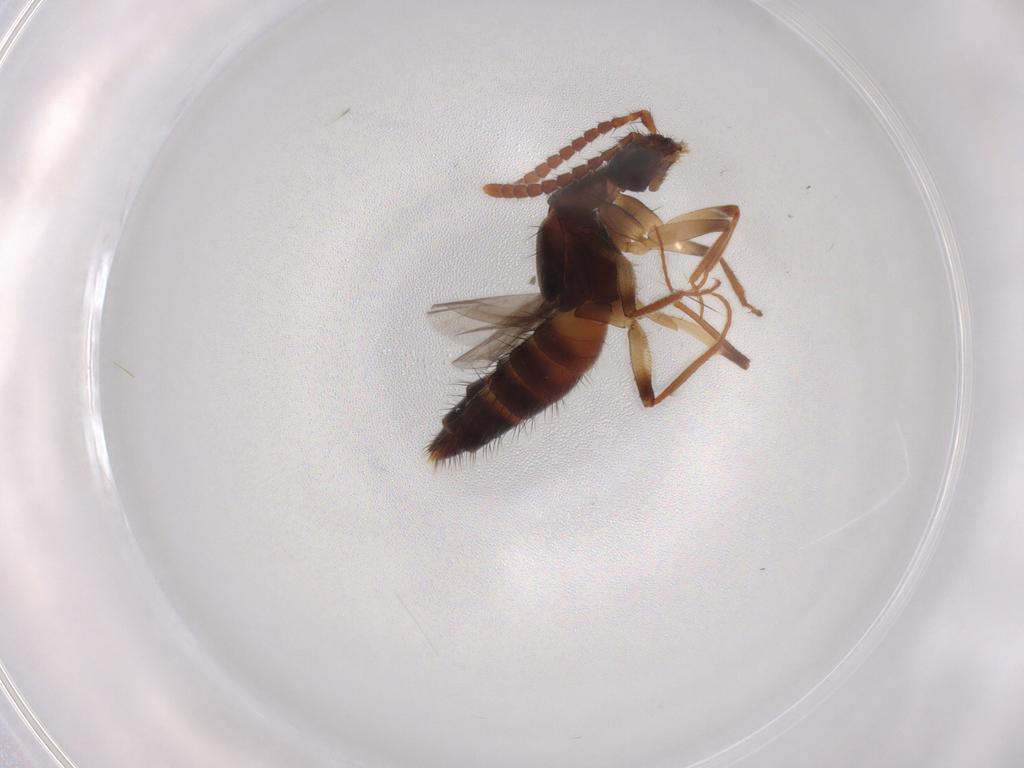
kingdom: Animalia
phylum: Arthropoda
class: Insecta
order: Coleoptera
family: Staphylinidae
